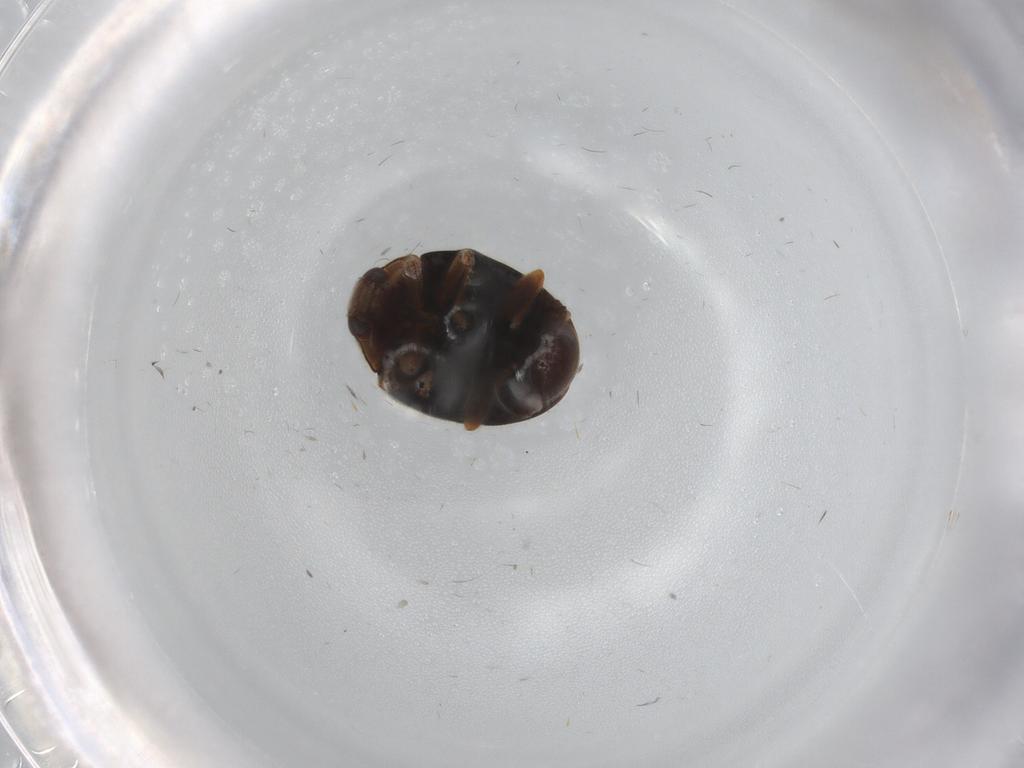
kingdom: Animalia
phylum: Arthropoda
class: Insecta
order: Coleoptera
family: Coccinellidae
